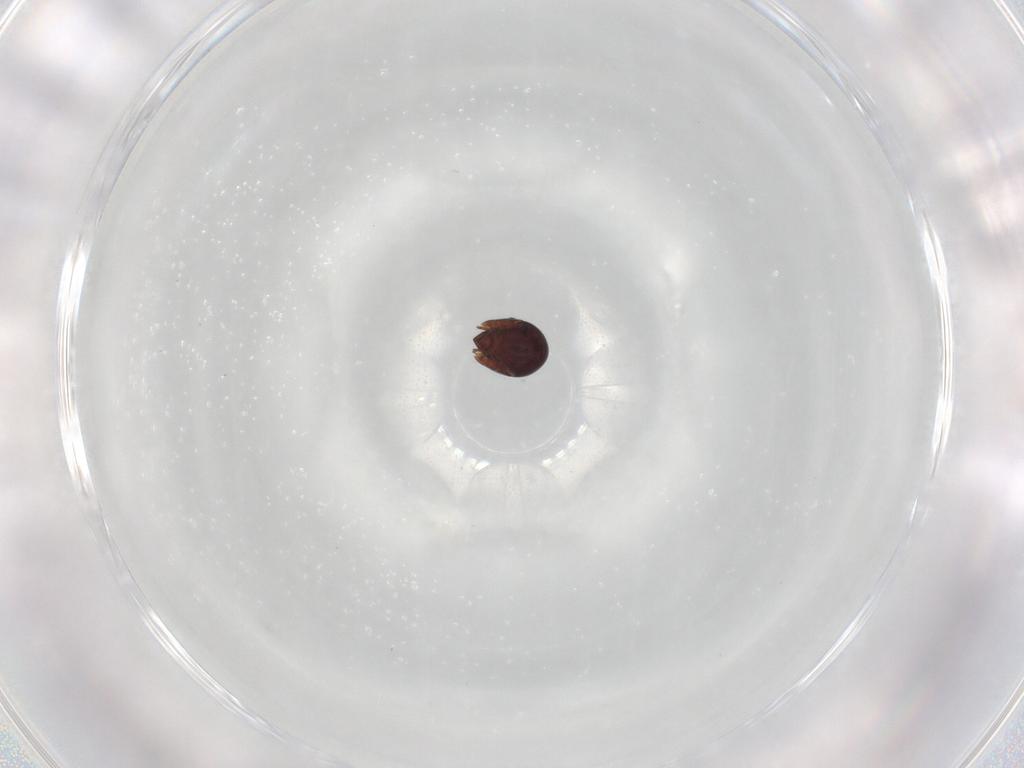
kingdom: Animalia
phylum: Arthropoda
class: Arachnida
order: Sarcoptiformes
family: Galumnidae
